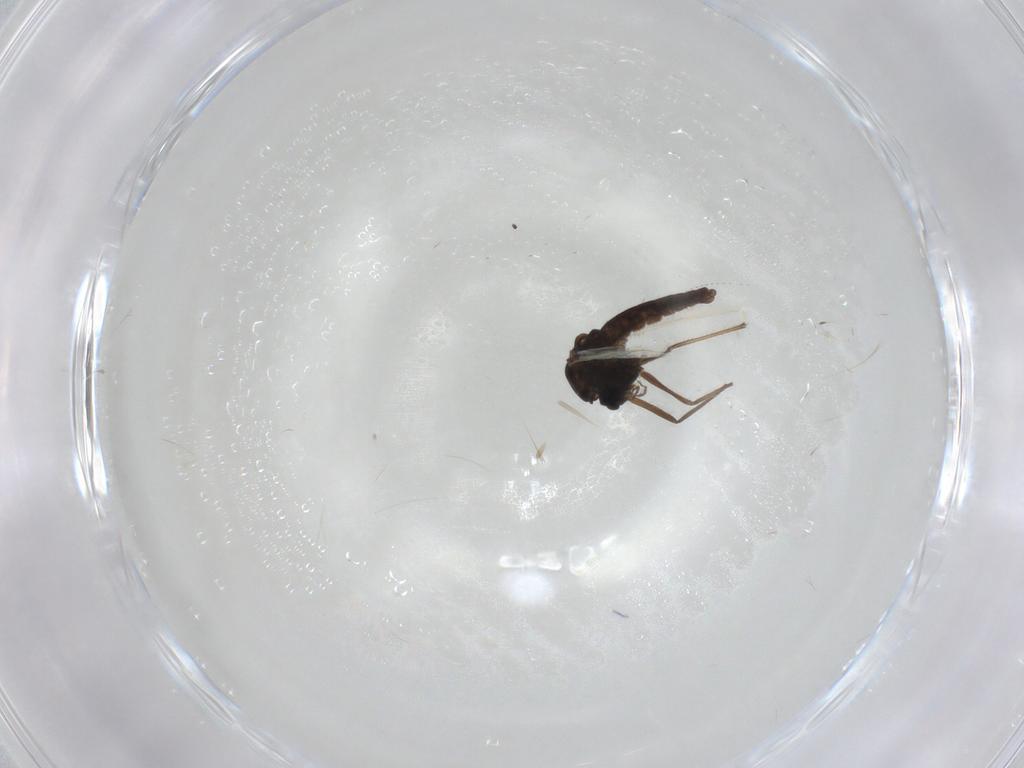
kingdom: Animalia
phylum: Arthropoda
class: Insecta
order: Diptera
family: Chironomidae
